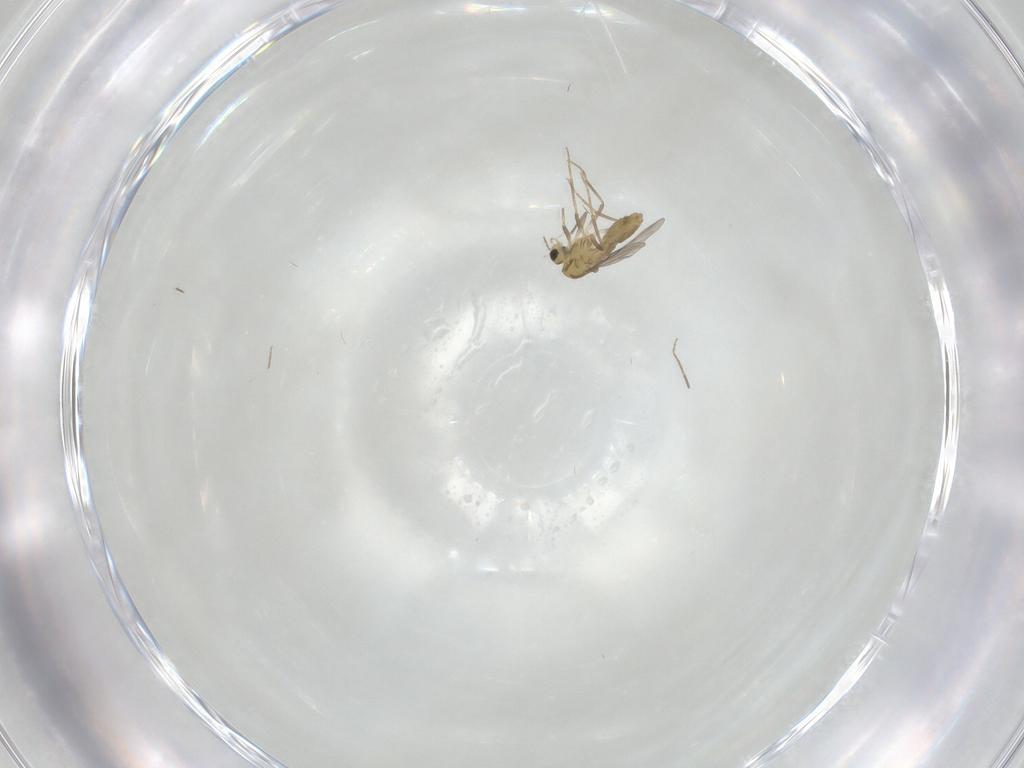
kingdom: Animalia
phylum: Arthropoda
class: Insecta
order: Diptera
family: Chironomidae
